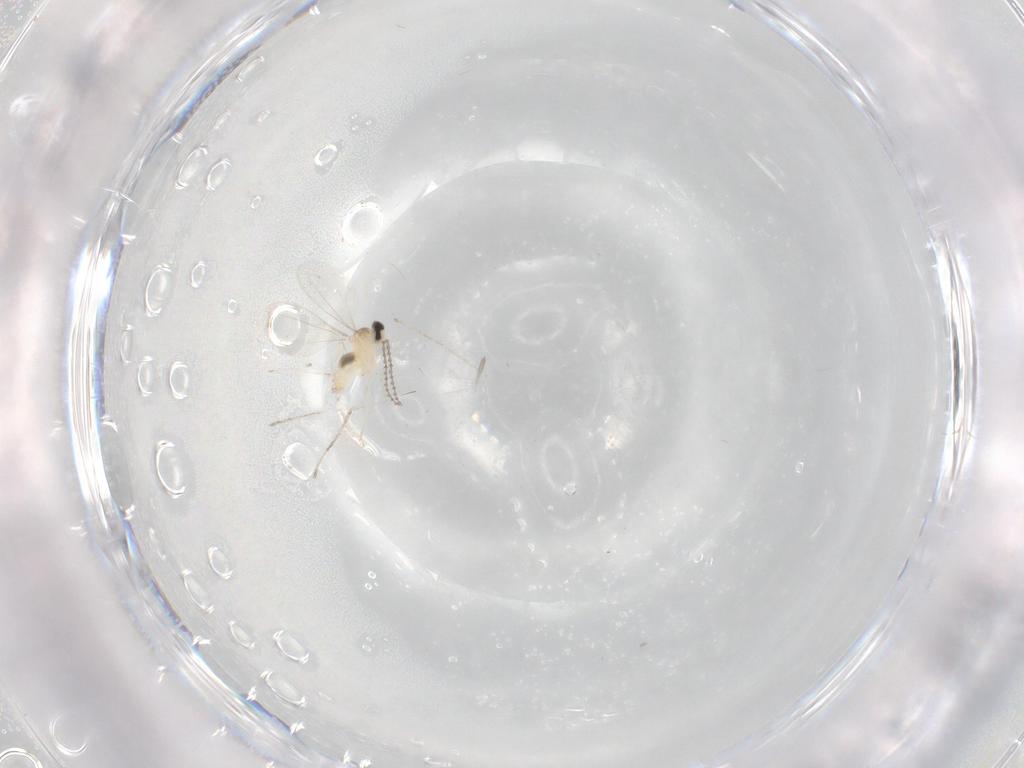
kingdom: Animalia
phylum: Arthropoda
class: Insecta
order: Diptera
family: Cecidomyiidae
